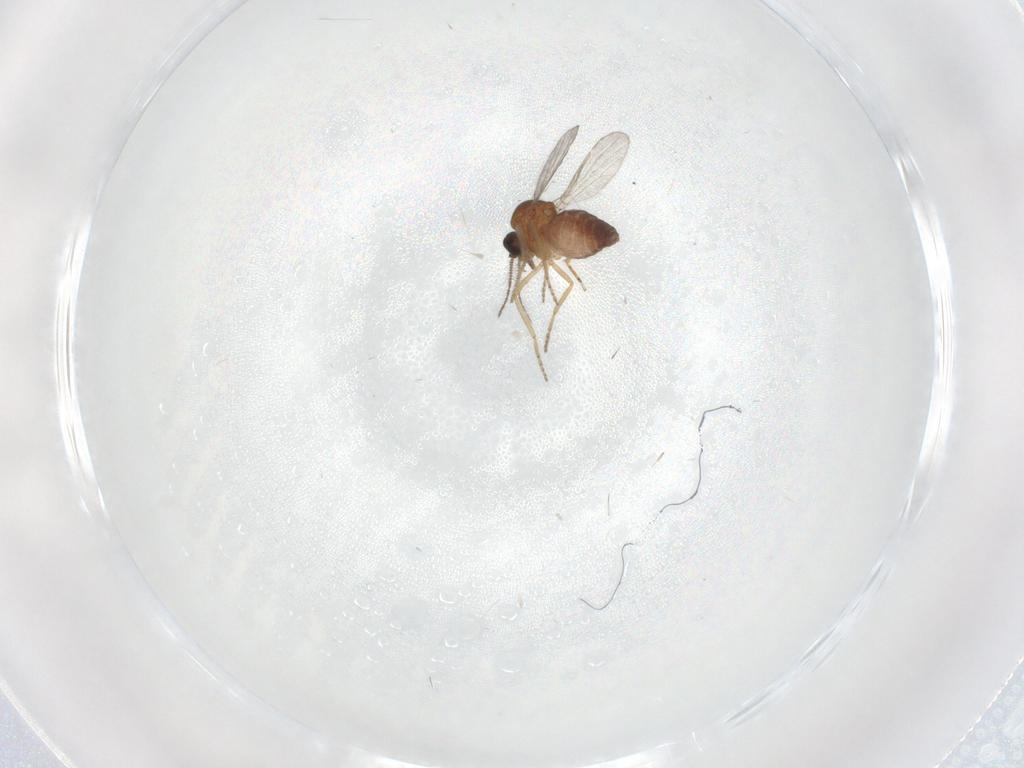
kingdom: Animalia
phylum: Arthropoda
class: Insecta
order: Diptera
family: Ceratopogonidae
